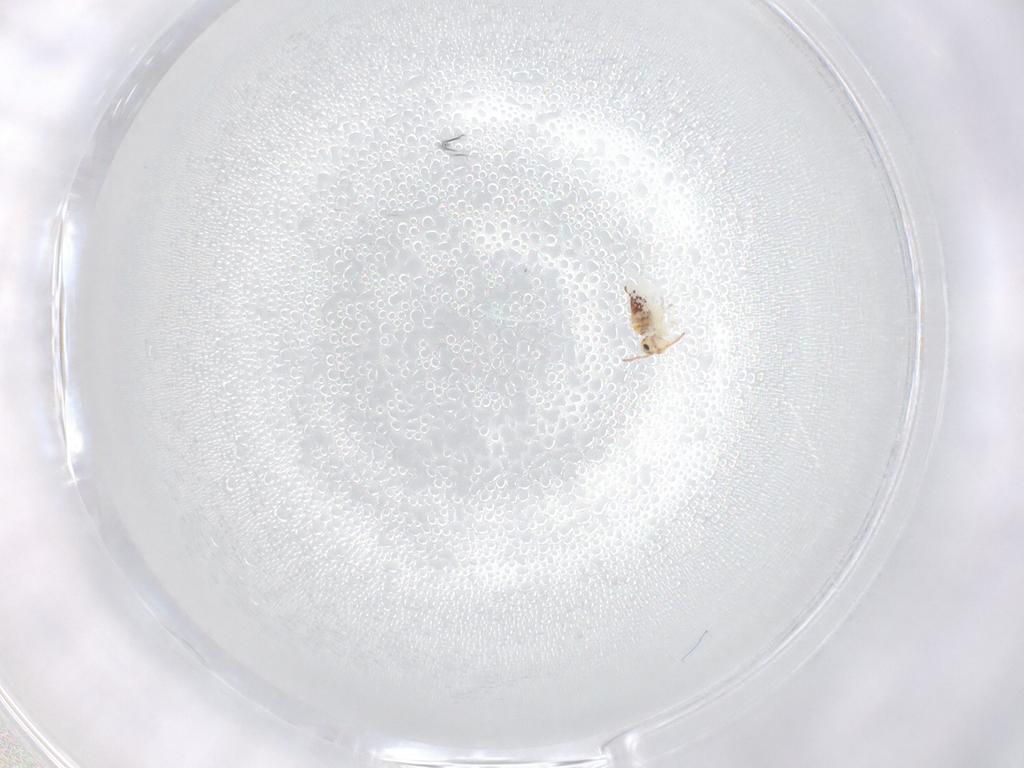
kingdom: Animalia
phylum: Arthropoda
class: Collembola
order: Symphypleona
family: Bourletiellidae
